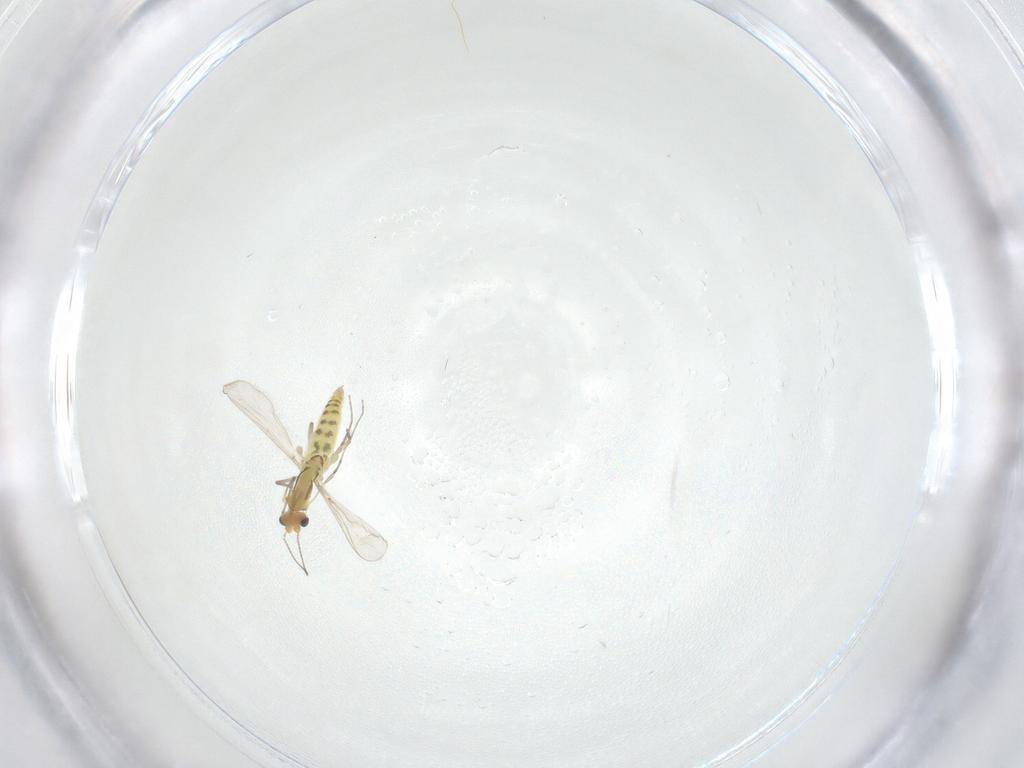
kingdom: Animalia
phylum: Arthropoda
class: Insecta
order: Diptera
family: Chironomidae
